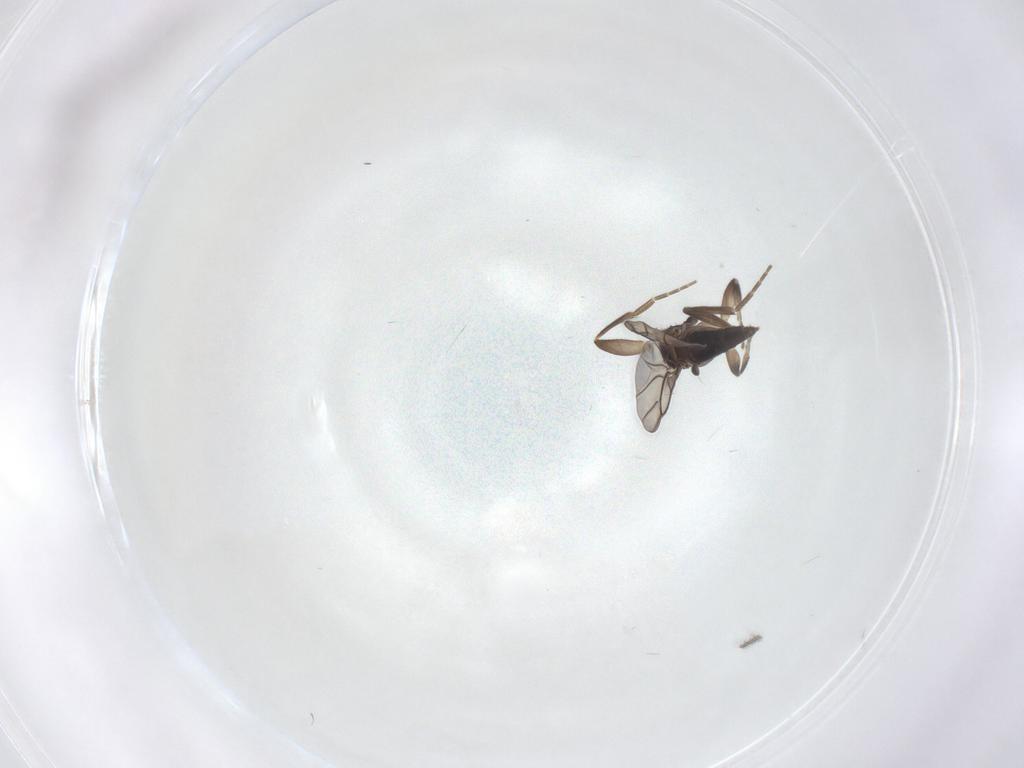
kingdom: Animalia
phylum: Arthropoda
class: Insecta
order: Diptera
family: Phoridae
